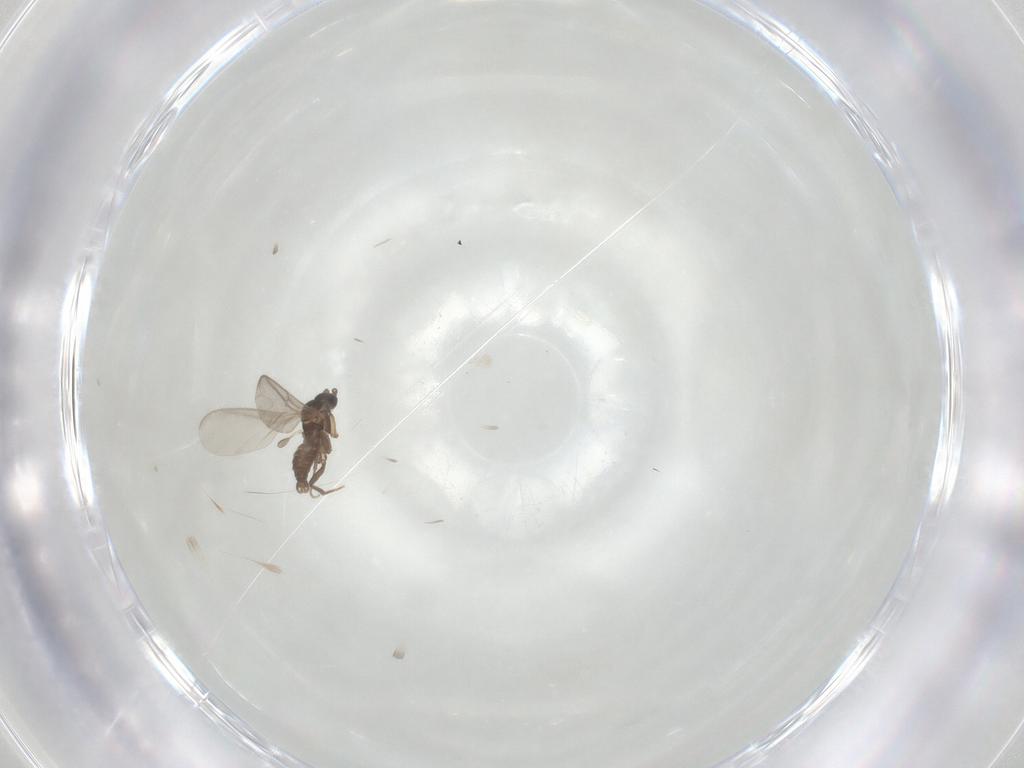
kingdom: Animalia
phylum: Arthropoda
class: Insecta
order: Diptera
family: Sciaridae
